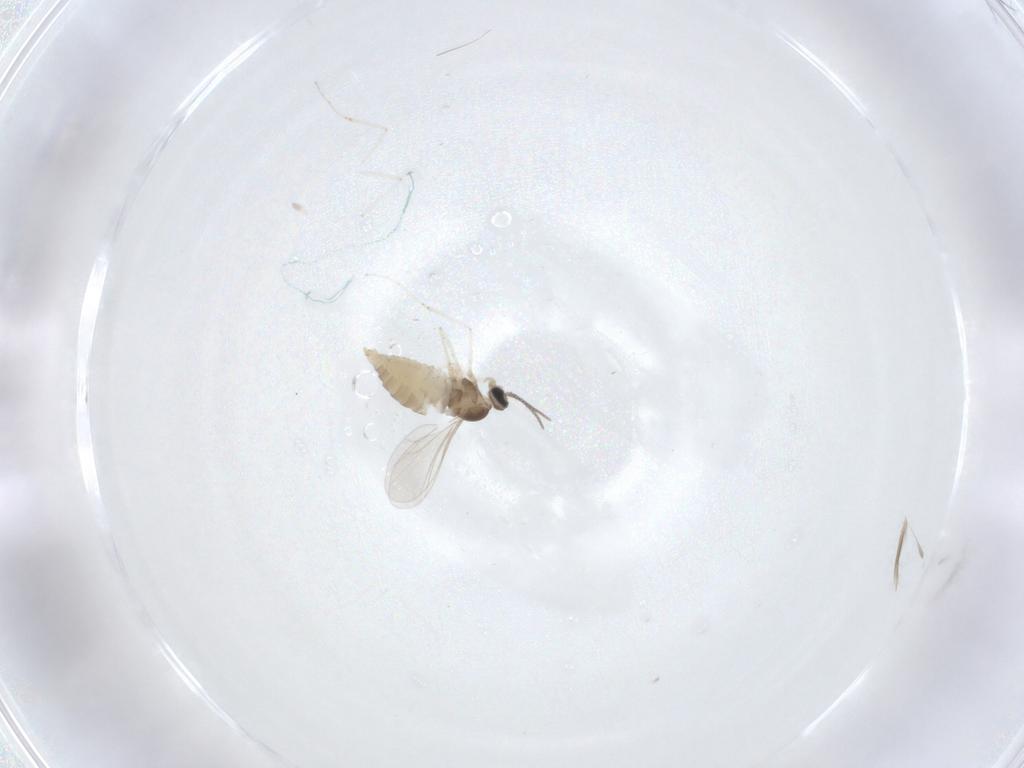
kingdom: Animalia
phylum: Arthropoda
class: Insecta
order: Diptera
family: Cecidomyiidae
